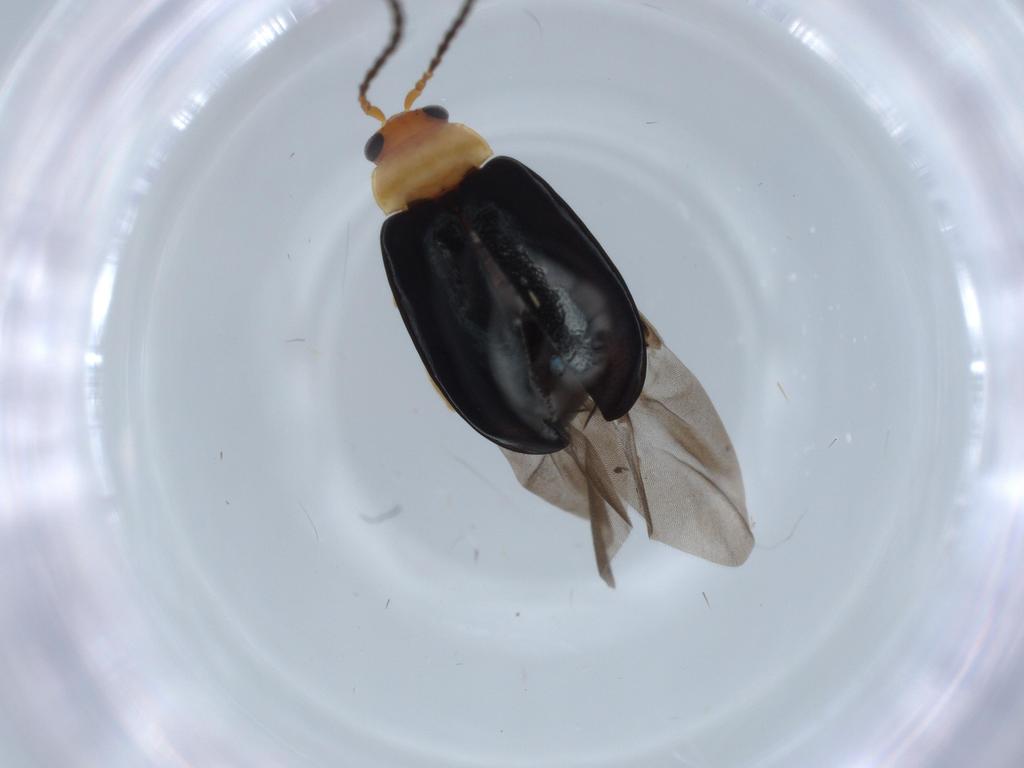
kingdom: Animalia
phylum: Arthropoda
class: Insecta
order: Coleoptera
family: Chrysomelidae
